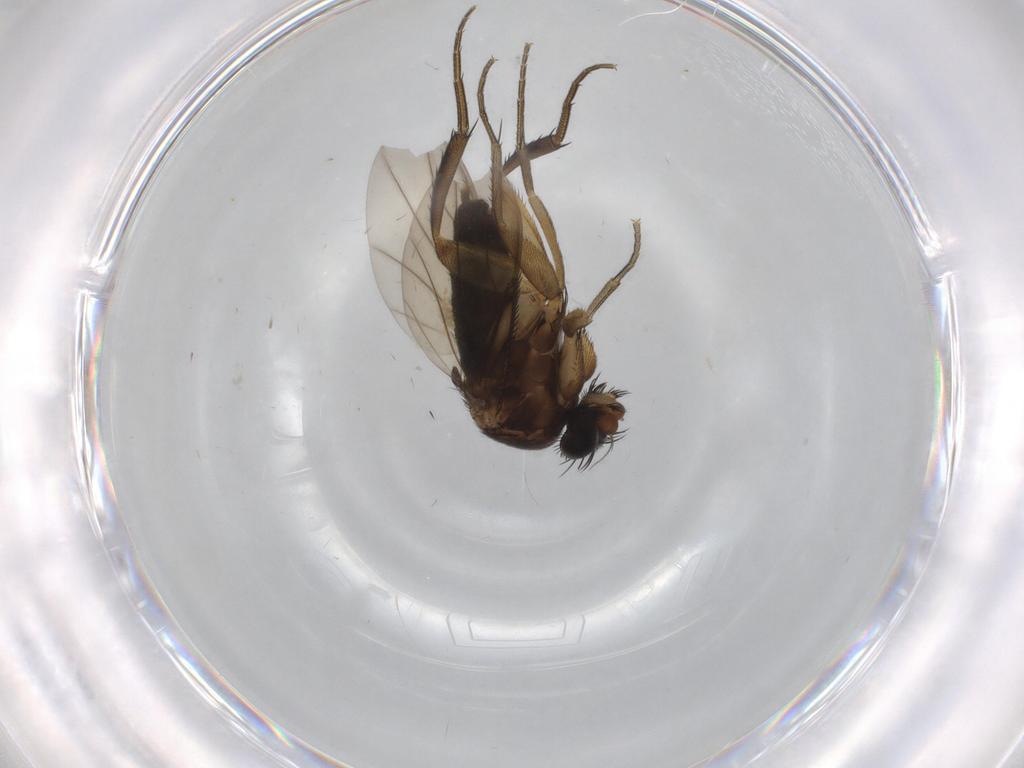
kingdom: Animalia
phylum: Arthropoda
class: Insecta
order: Diptera
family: Phoridae
